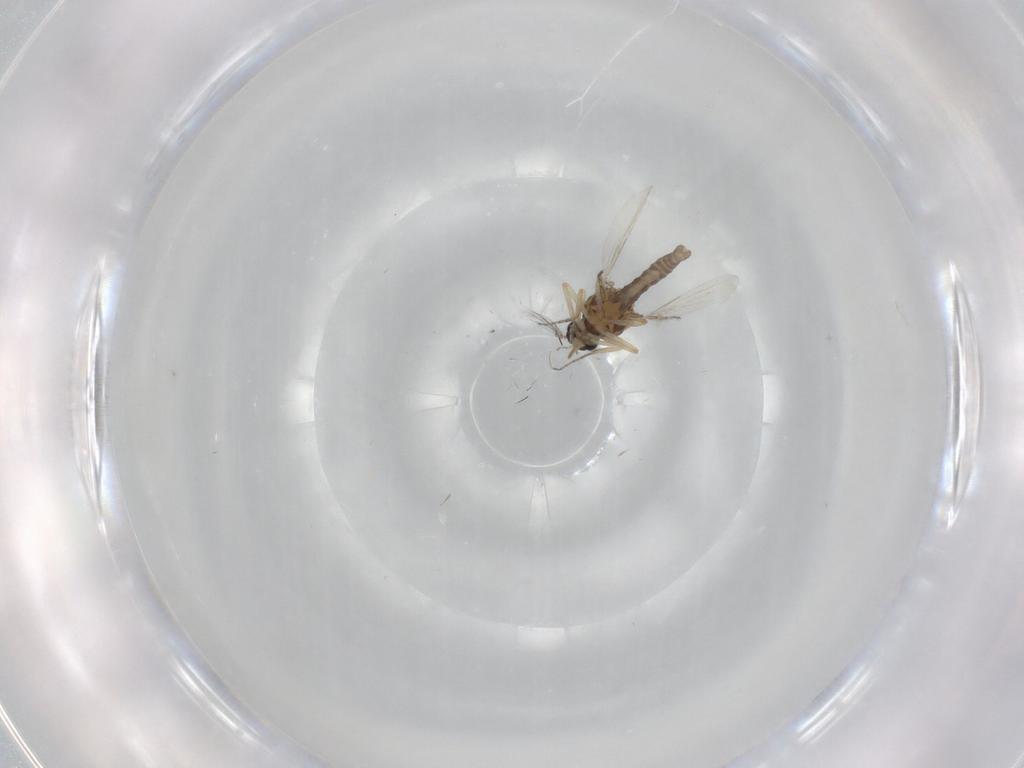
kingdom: Animalia
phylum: Arthropoda
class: Insecta
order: Diptera
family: Ceratopogonidae
